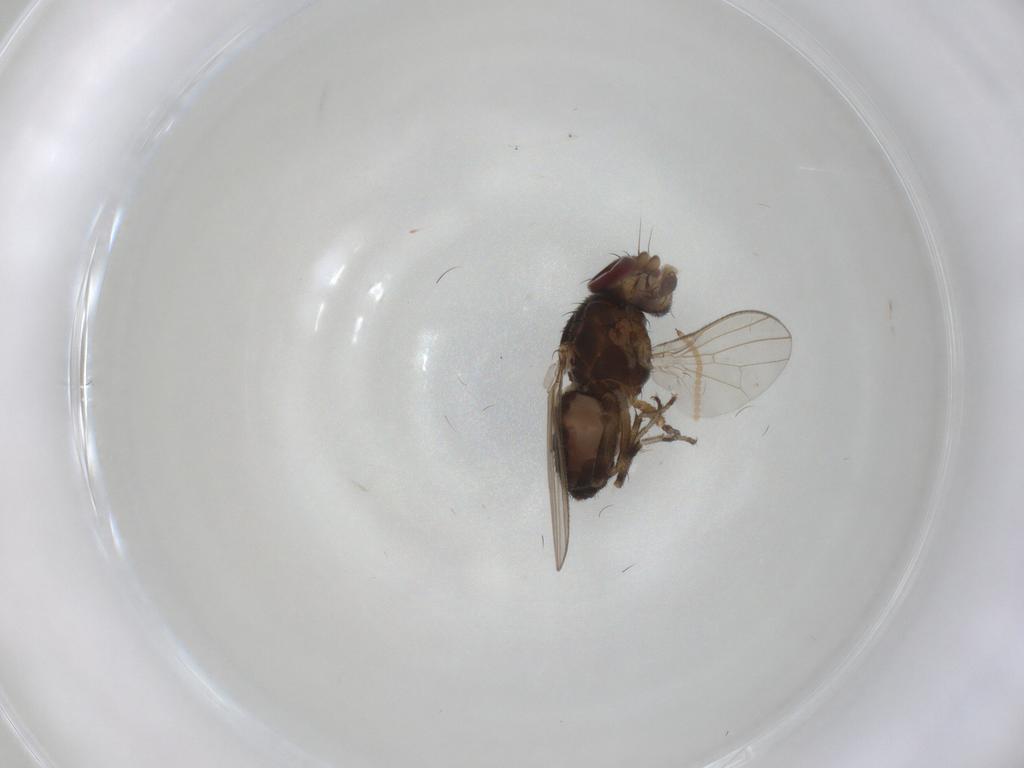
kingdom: Animalia
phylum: Arthropoda
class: Insecta
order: Diptera
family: Heleomyzidae
